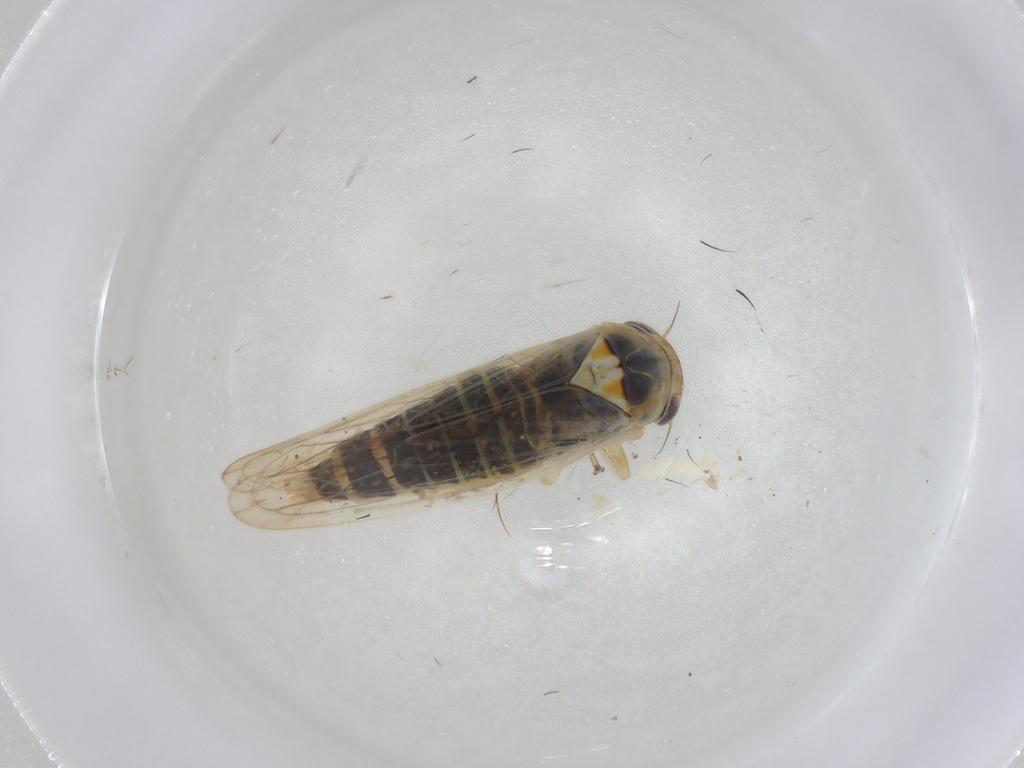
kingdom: Animalia
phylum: Arthropoda
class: Insecta
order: Hemiptera
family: Cicadellidae
